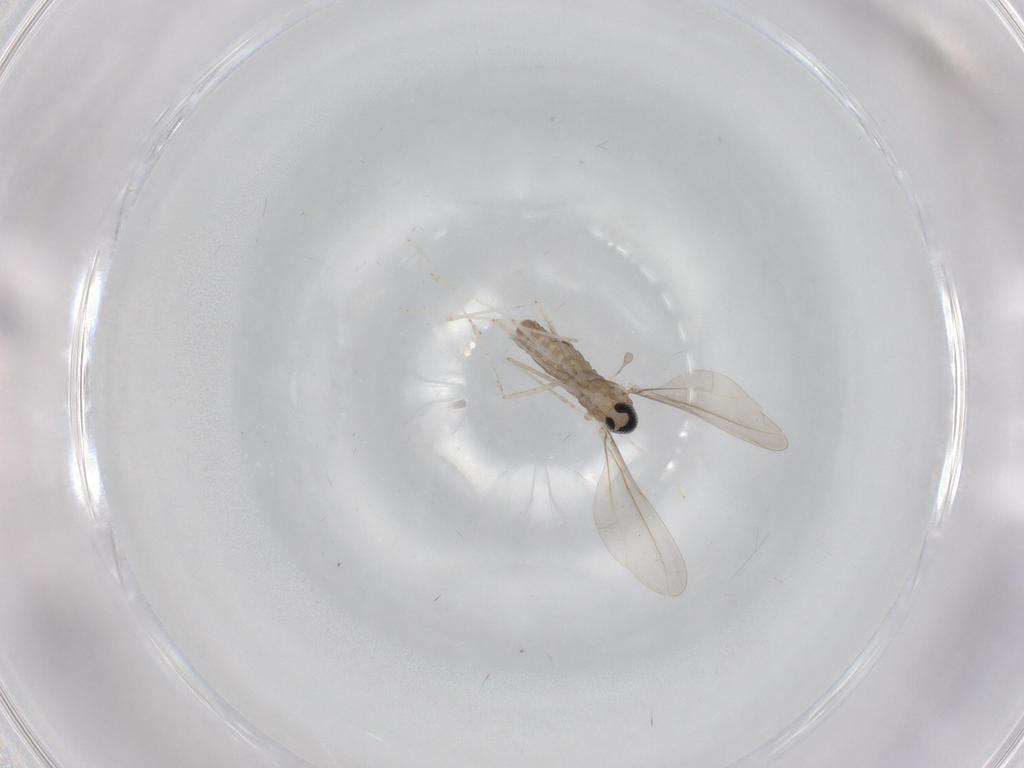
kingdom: Animalia
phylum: Arthropoda
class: Insecta
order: Diptera
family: Cecidomyiidae
